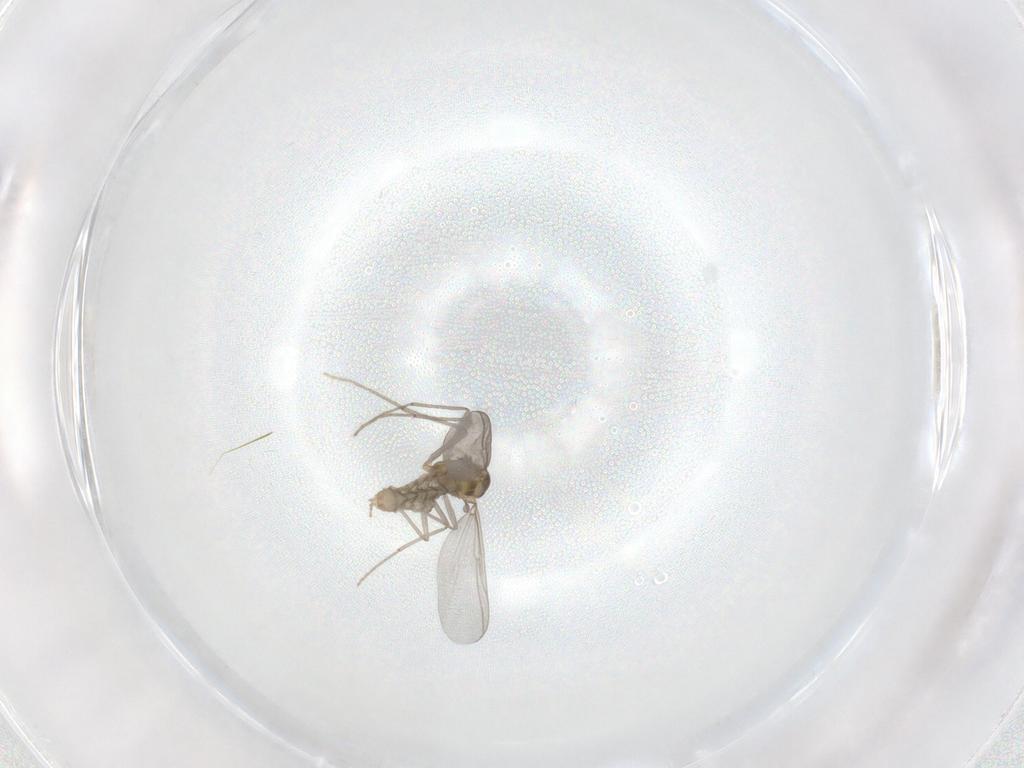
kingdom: Animalia
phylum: Arthropoda
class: Insecta
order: Diptera
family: Chironomidae
